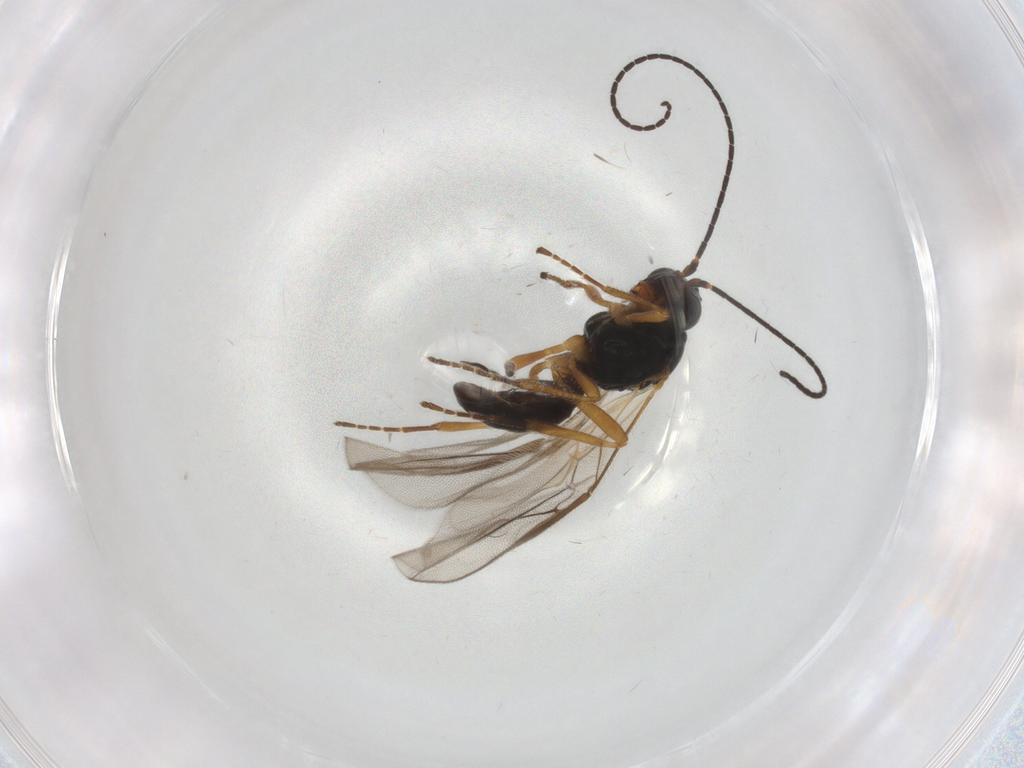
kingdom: Animalia
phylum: Arthropoda
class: Insecta
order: Hymenoptera
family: Braconidae
